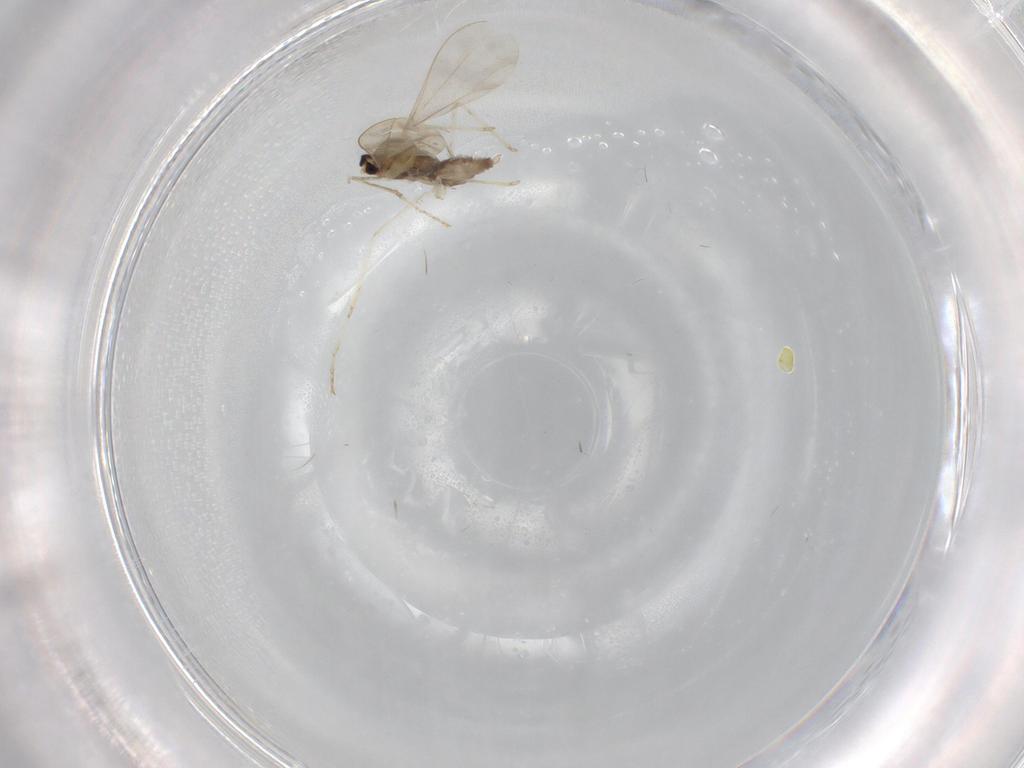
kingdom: Animalia
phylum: Arthropoda
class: Insecta
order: Diptera
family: Cecidomyiidae
